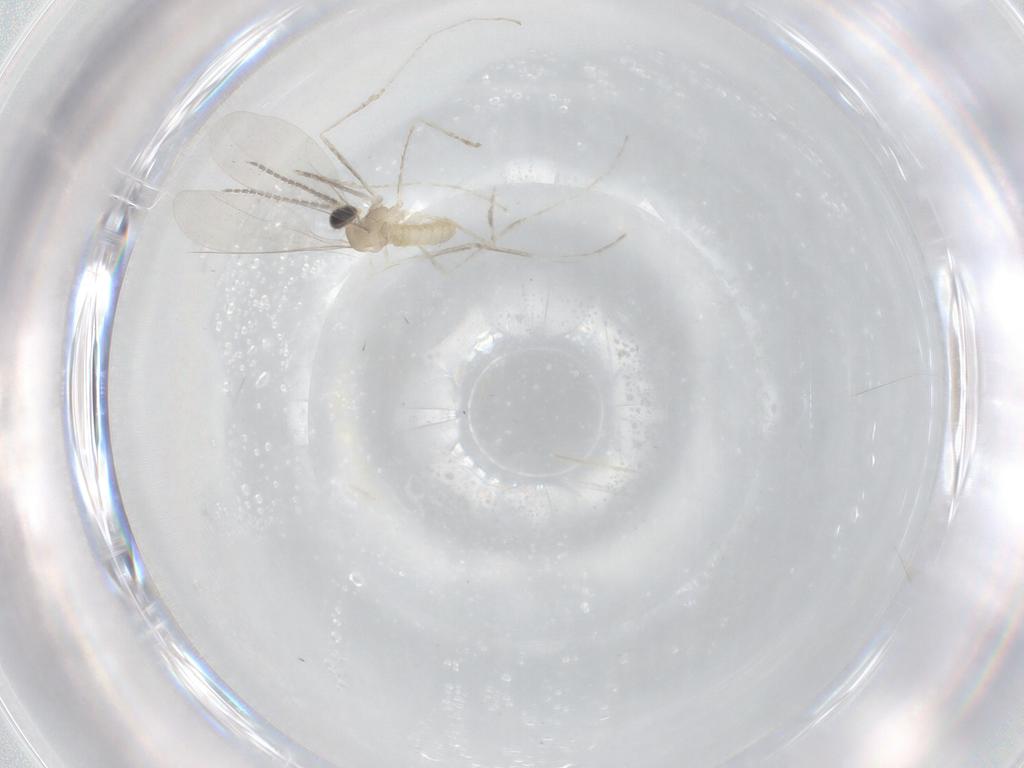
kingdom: Animalia
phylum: Arthropoda
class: Insecta
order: Diptera
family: Cecidomyiidae
